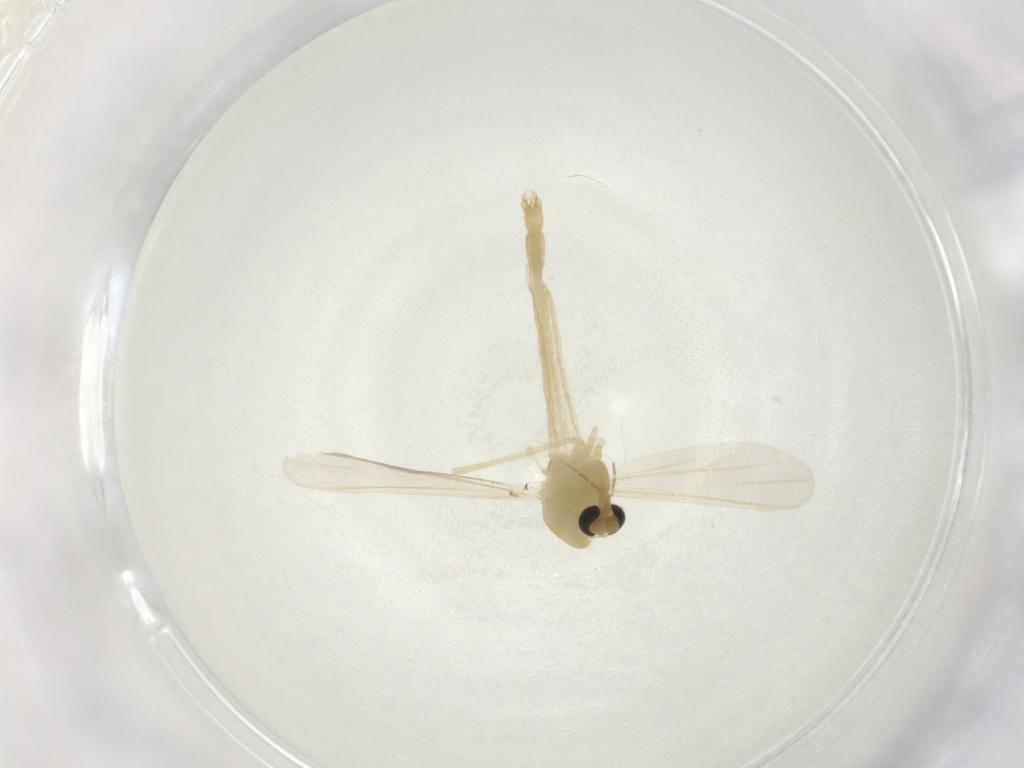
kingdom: Animalia
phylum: Arthropoda
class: Insecta
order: Diptera
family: Chironomidae
